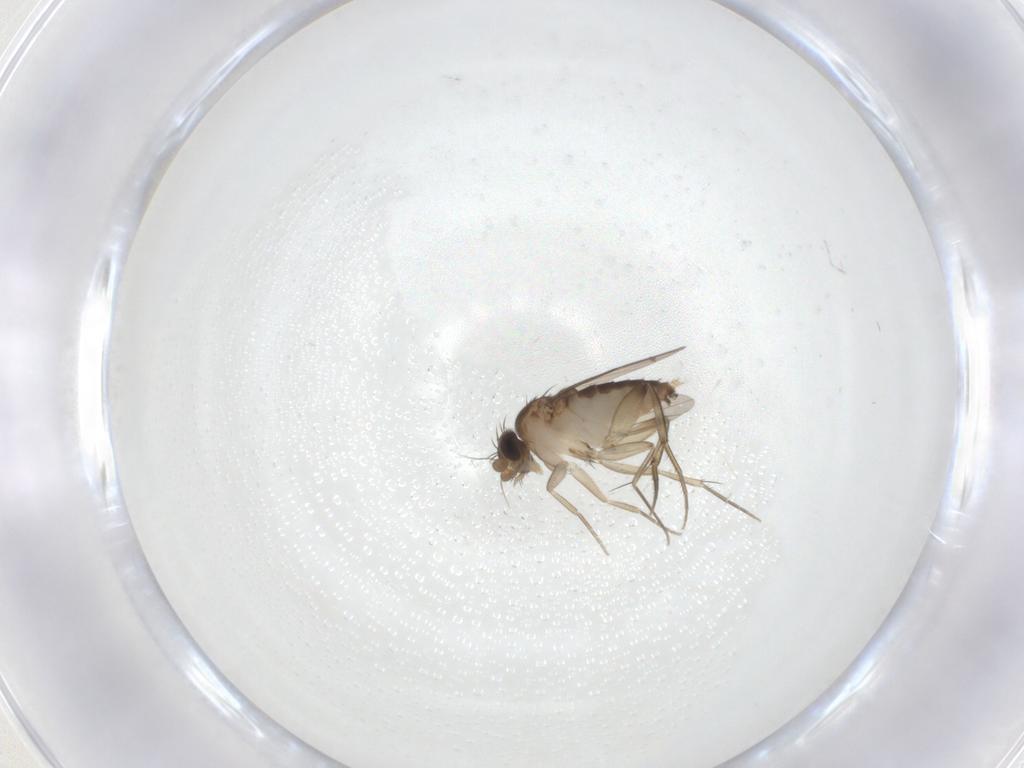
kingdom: Animalia
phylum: Arthropoda
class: Insecta
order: Diptera
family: Phoridae
